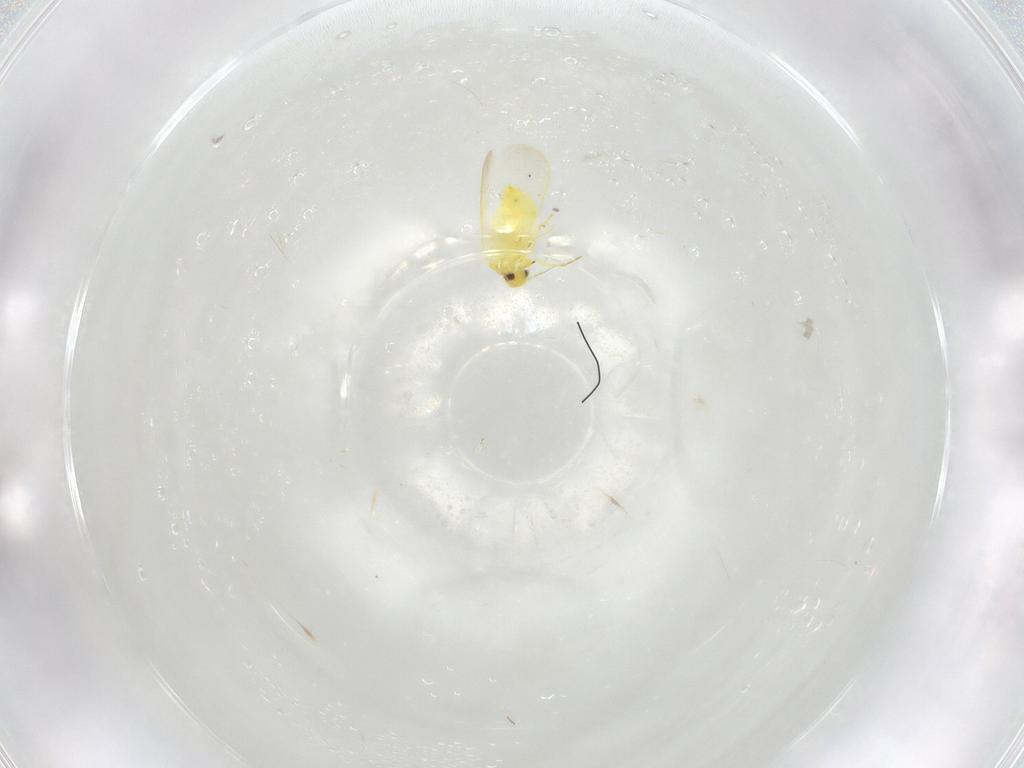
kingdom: Animalia
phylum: Arthropoda
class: Insecta
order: Hemiptera
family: Aleyrodidae
